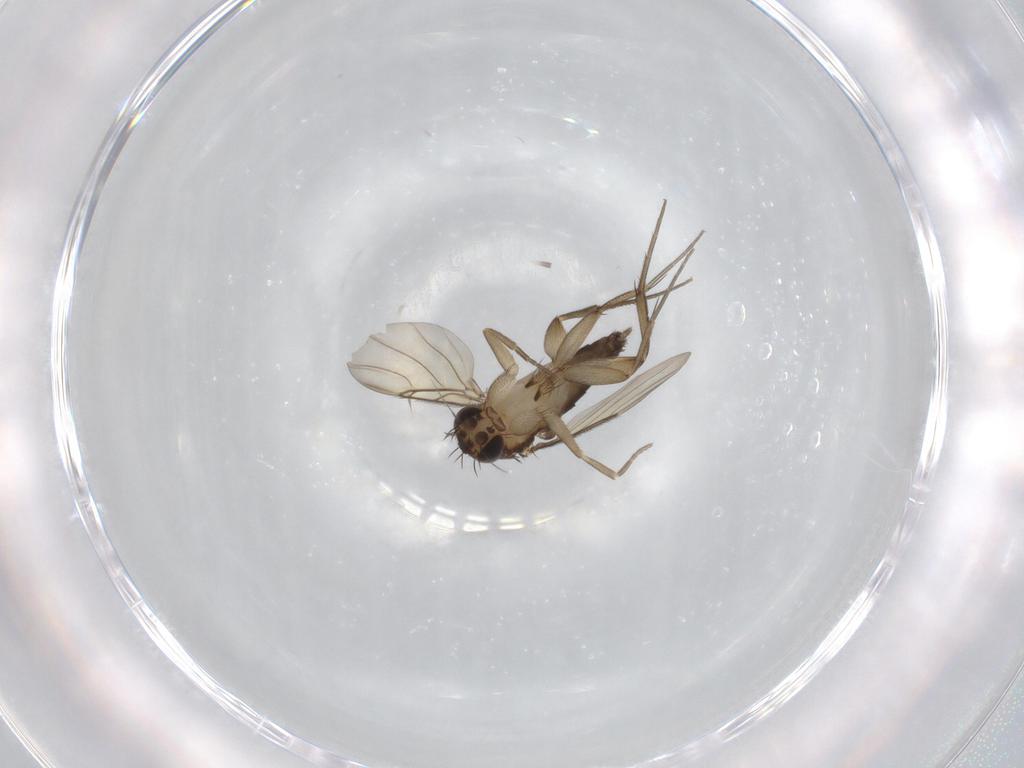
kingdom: Animalia
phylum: Arthropoda
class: Insecta
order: Diptera
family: Phoridae
